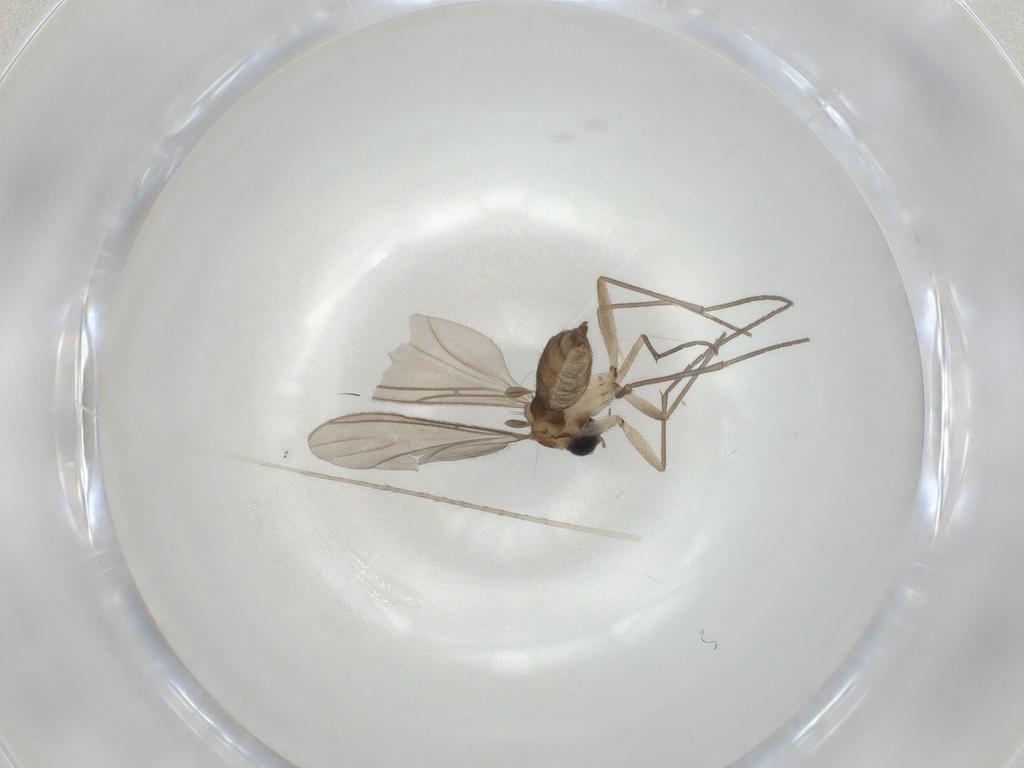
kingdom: Animalia
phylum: Arthropoda
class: Insecta
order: Diptera
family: Sciaridae
